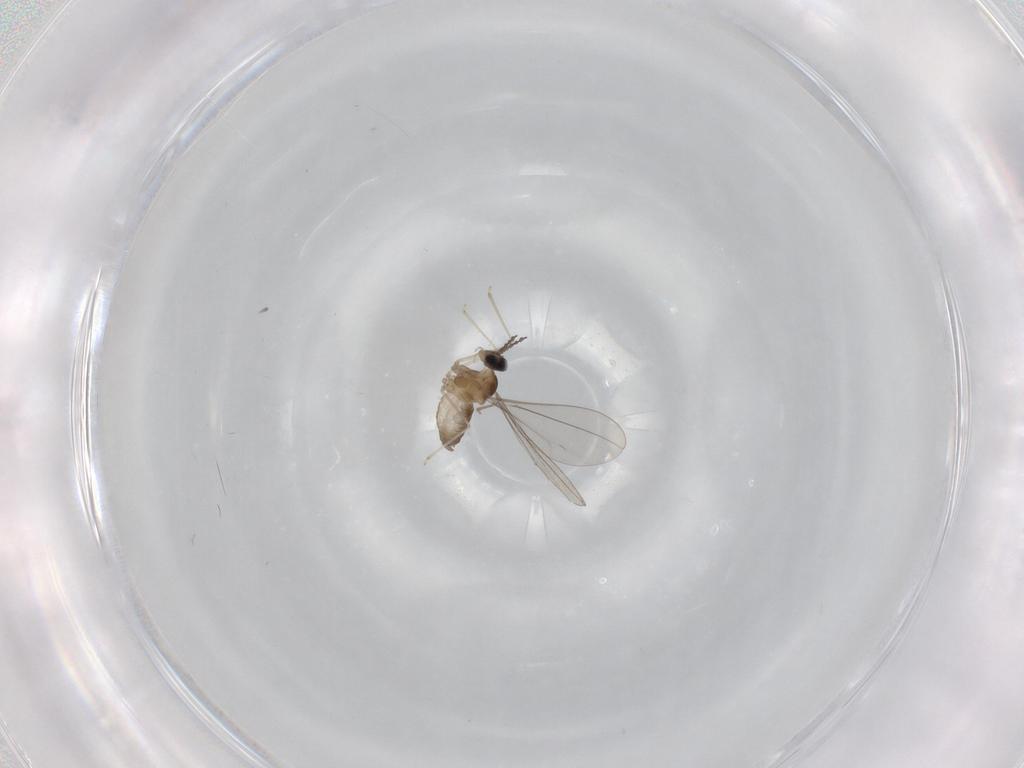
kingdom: Animalia
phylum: Arthropoda
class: Insecta
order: Diptera
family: Cecidomyiidae
